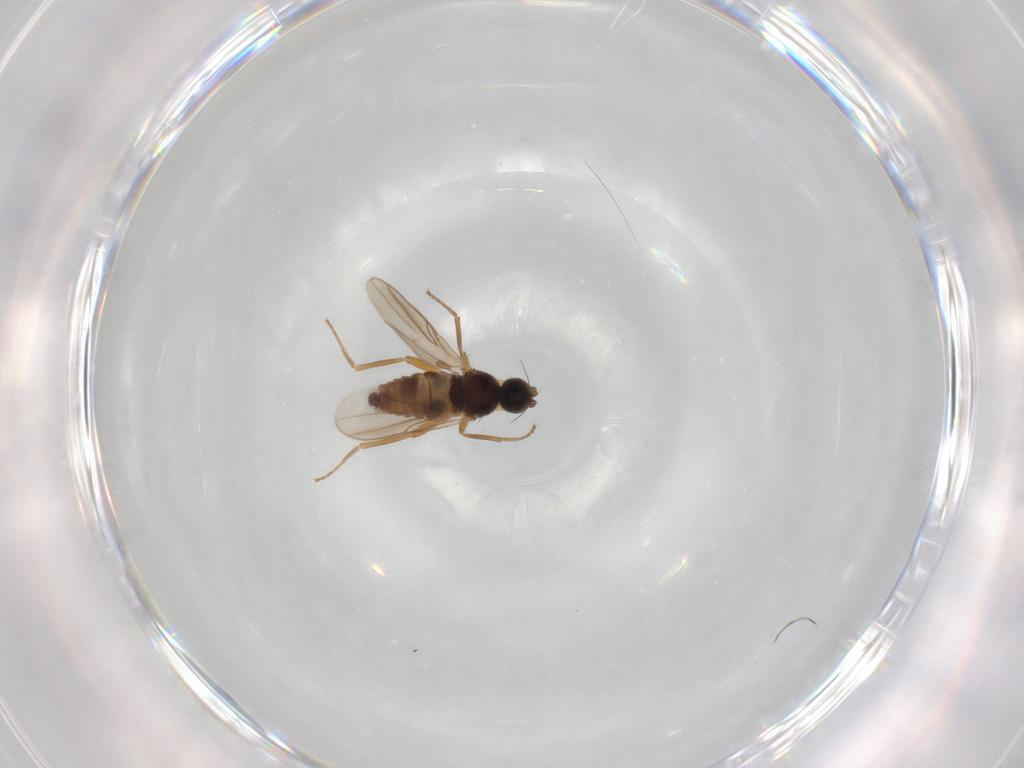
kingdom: Animalia
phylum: Arthropoda
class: Insecta
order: Diptera
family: Hybotidae
